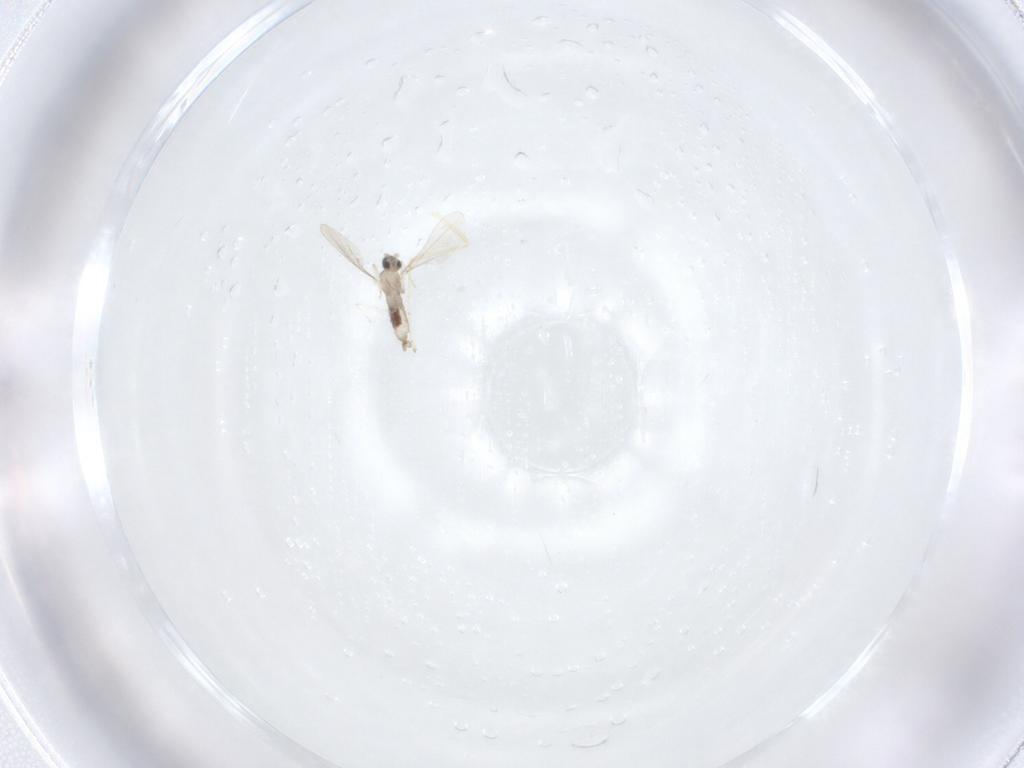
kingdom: Animalia
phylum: Arthropoda
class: Insecta
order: Diptera
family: Cecidomyiidae
